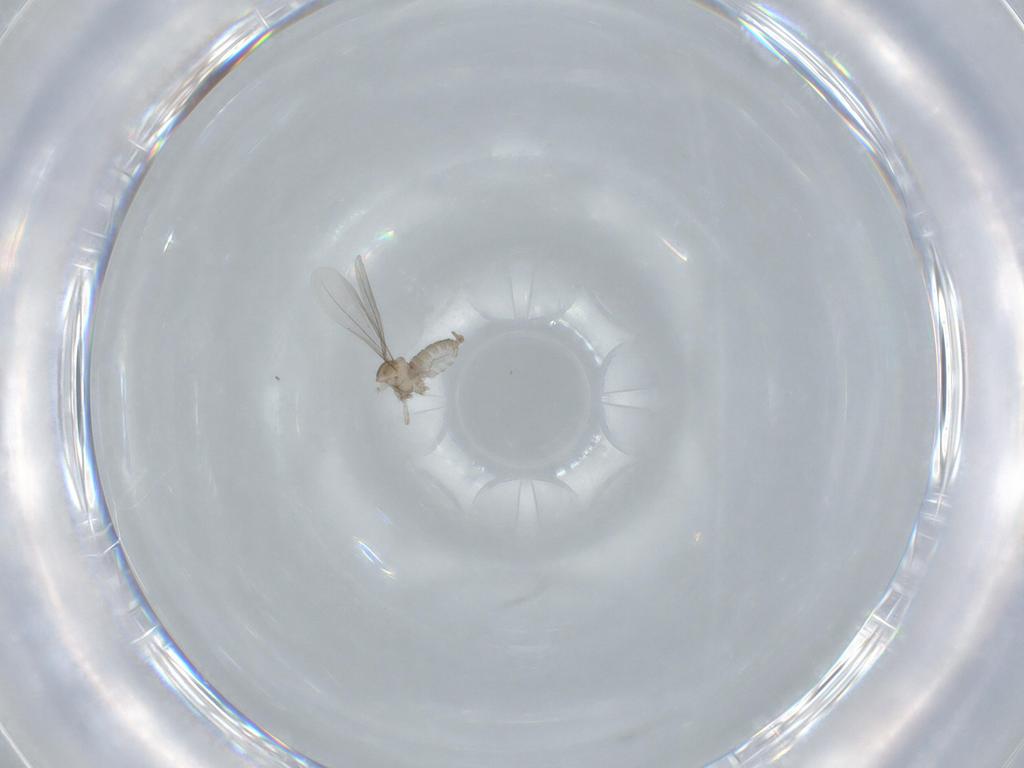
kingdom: Animalia
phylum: Arthropoda
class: Insecta
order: Diptera
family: Cecidomyiidae
